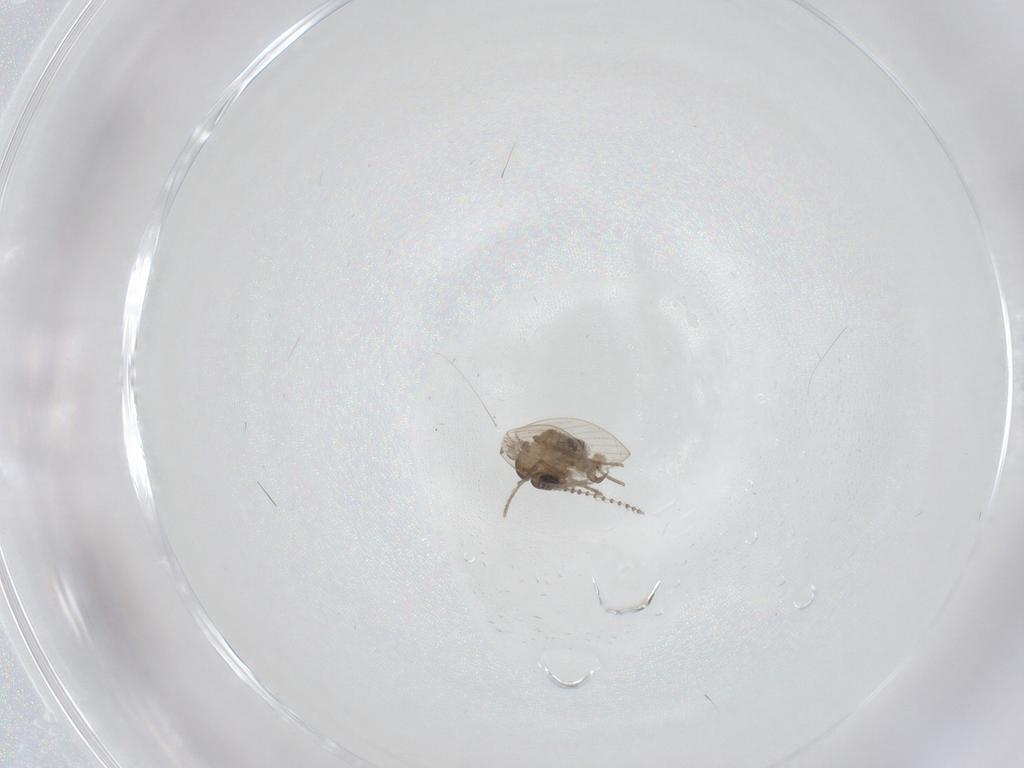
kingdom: Animalia
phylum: Arthropoda
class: Insecta
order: Diptera
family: Psychodidae
